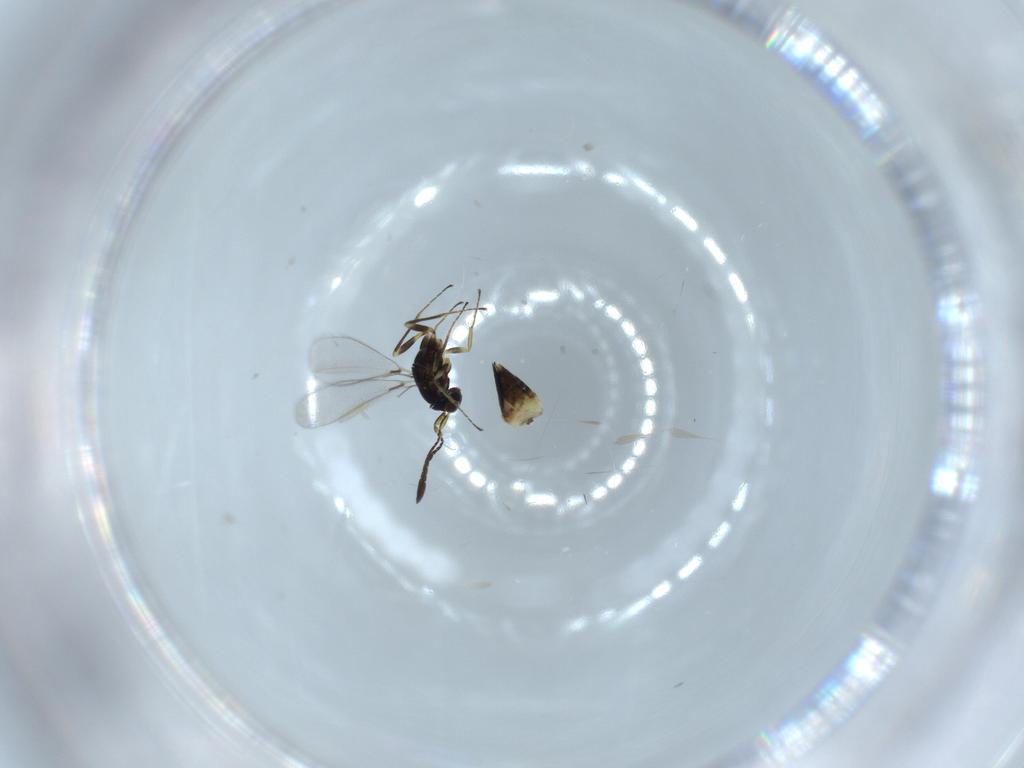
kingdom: Animalia
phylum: Arthropoda
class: Insecta
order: Hymenoptera
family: Mymaridae
